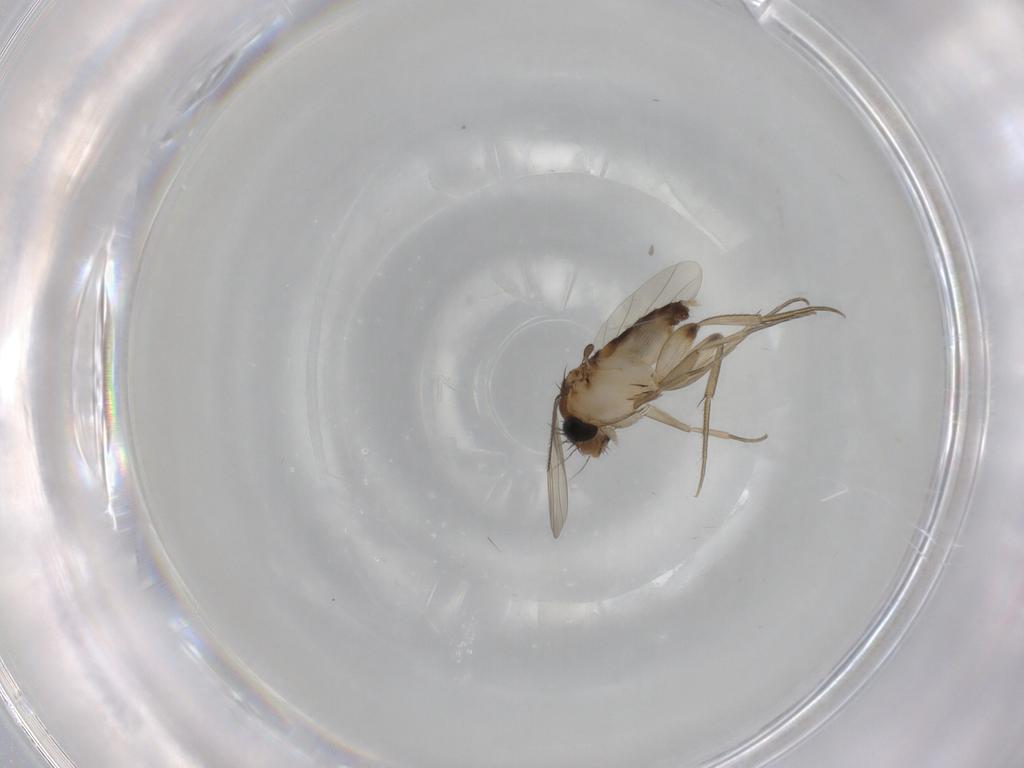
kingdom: Animalia
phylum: Arthropoda
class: Insecta
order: Diptera
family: Phoridae
